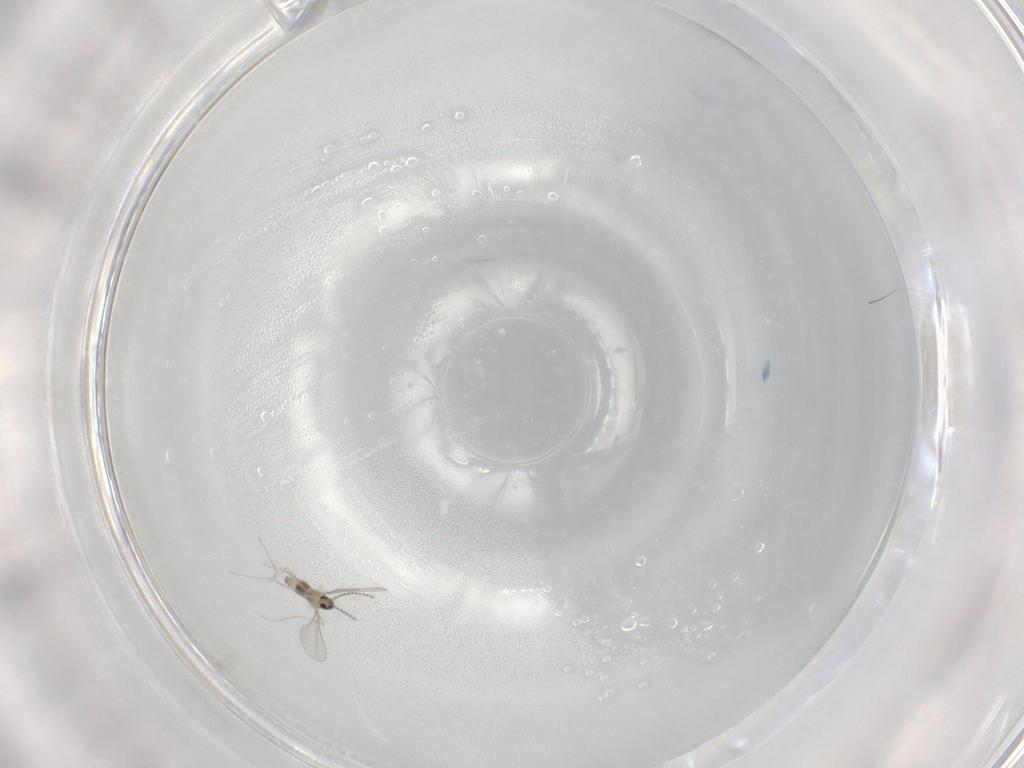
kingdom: Animalia
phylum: Arthropoda
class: Insecta
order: Diptera
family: Cecidomyiidae
